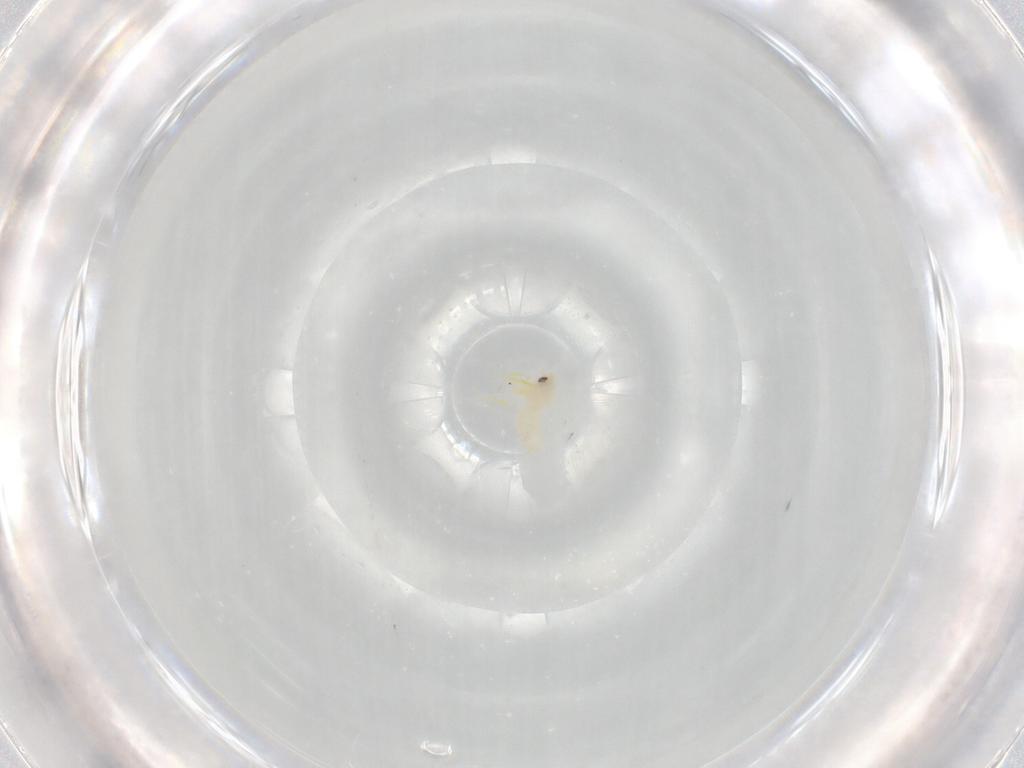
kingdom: Animalia
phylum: Arthropoda
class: Insecta
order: Hemiptera
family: Aleyrodidae
